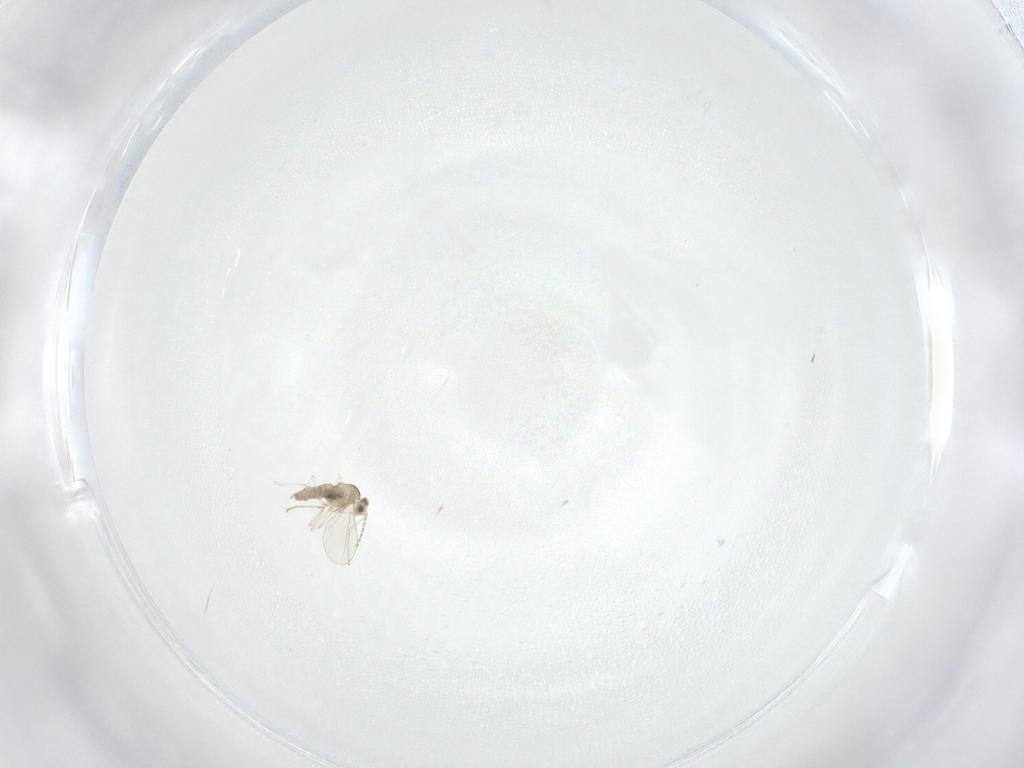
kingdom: Animalia
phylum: Arthropoda
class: Insecta
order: Diptera
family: Cecidomyiidae
